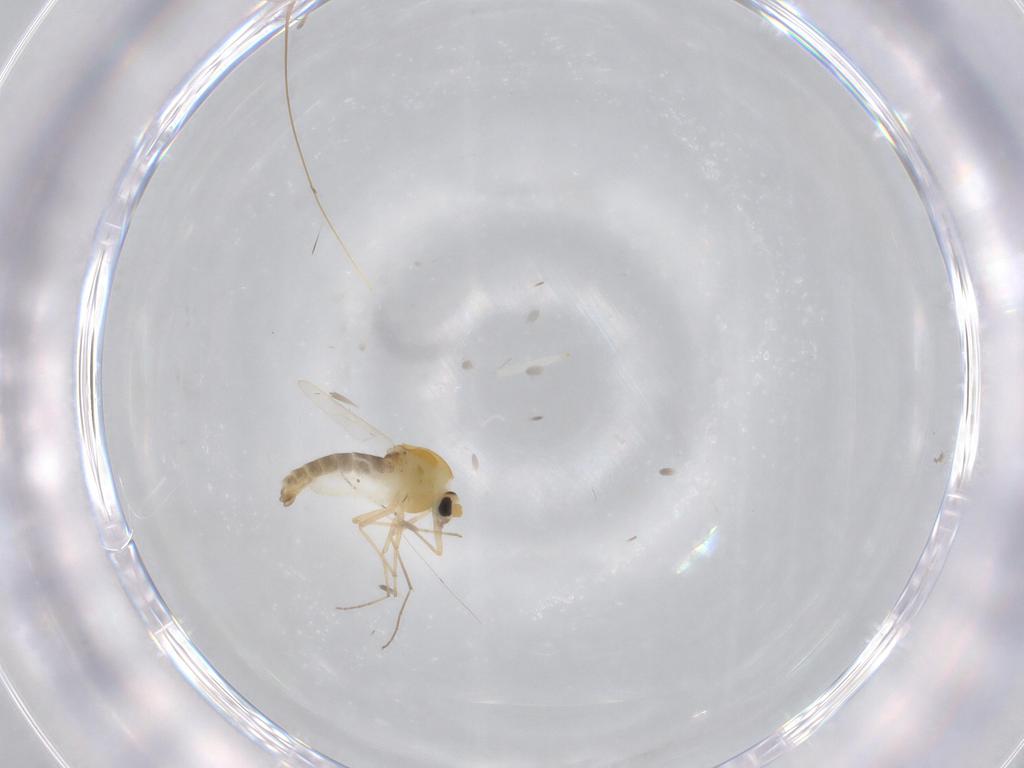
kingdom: Animalia
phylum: Arthropoda
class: Insecta
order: Diptera
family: Chironomidae
